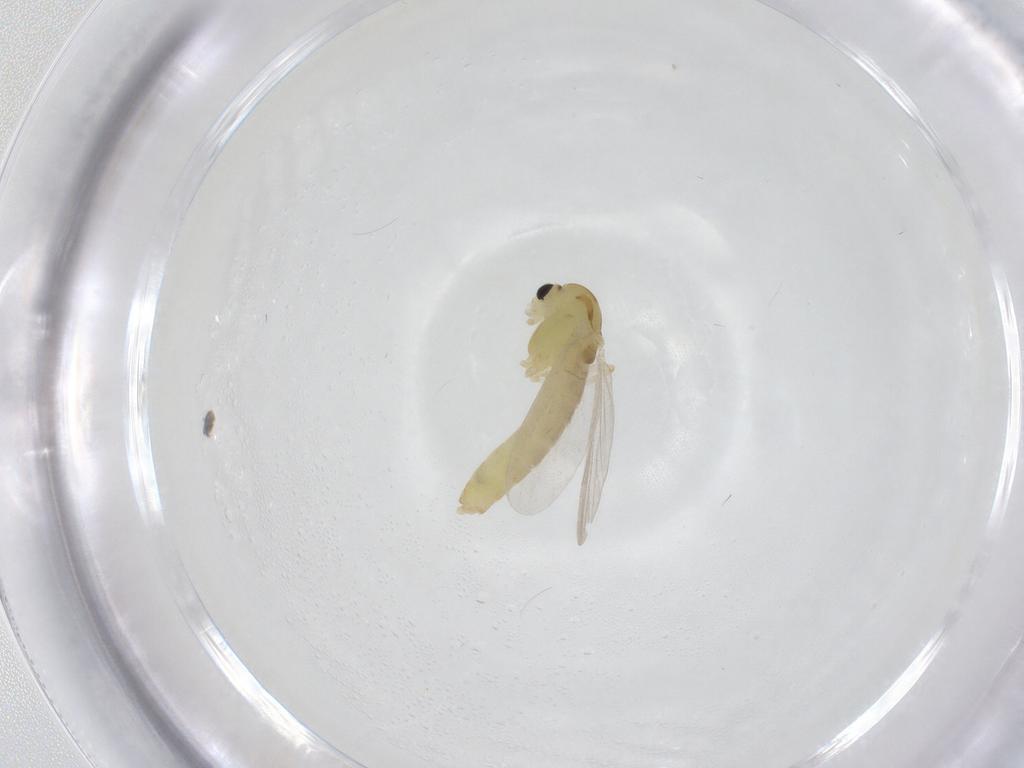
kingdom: Animalia
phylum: Arthropoda
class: Insecta
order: Diptera
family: Chironomidae
